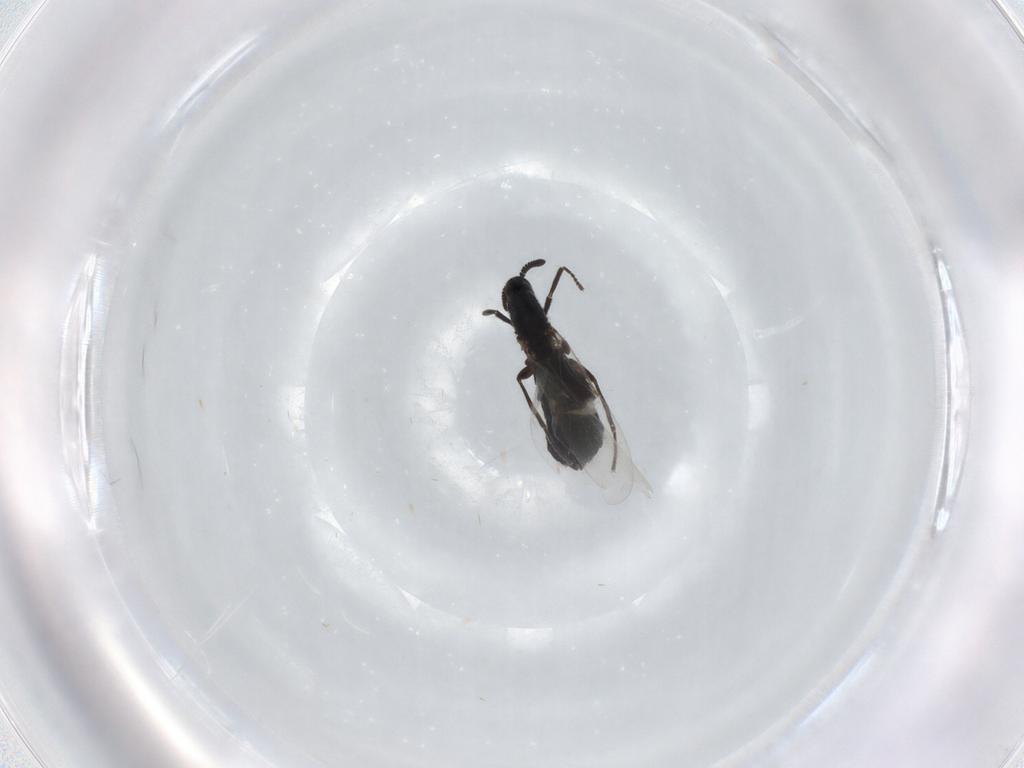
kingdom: Animalia
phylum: Arthropoda
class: Insecta
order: Diptera
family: Scatopsidae
